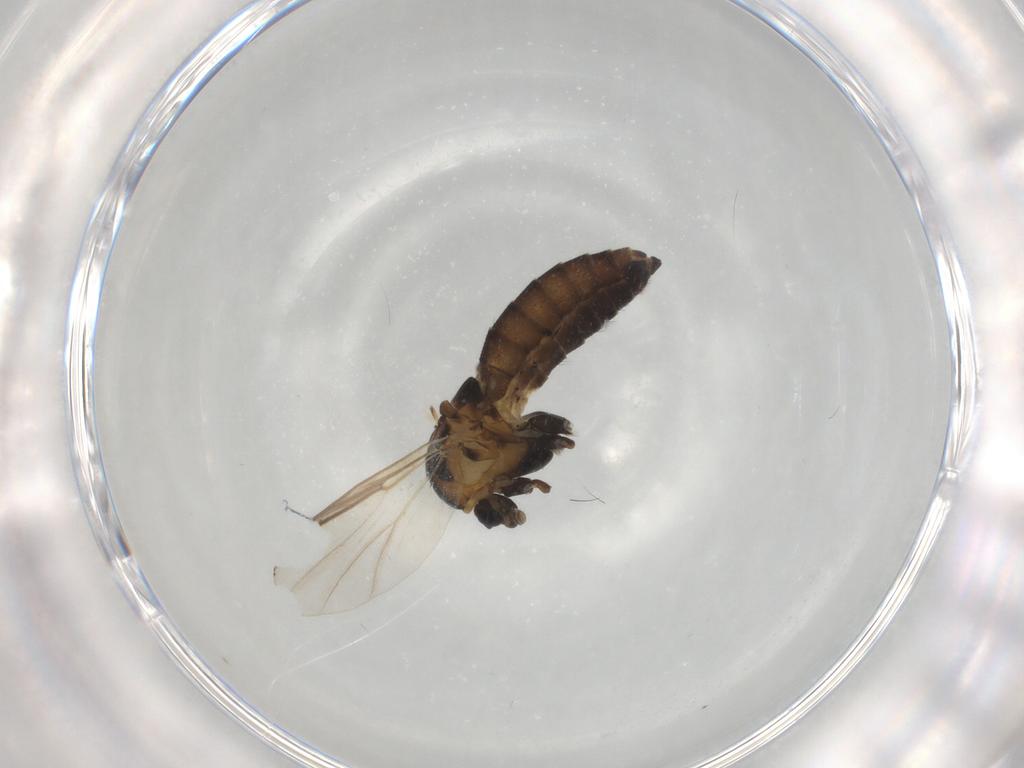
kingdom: Animalia
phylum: Arthropoda
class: Insecta
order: Diptera
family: Chironomidae
